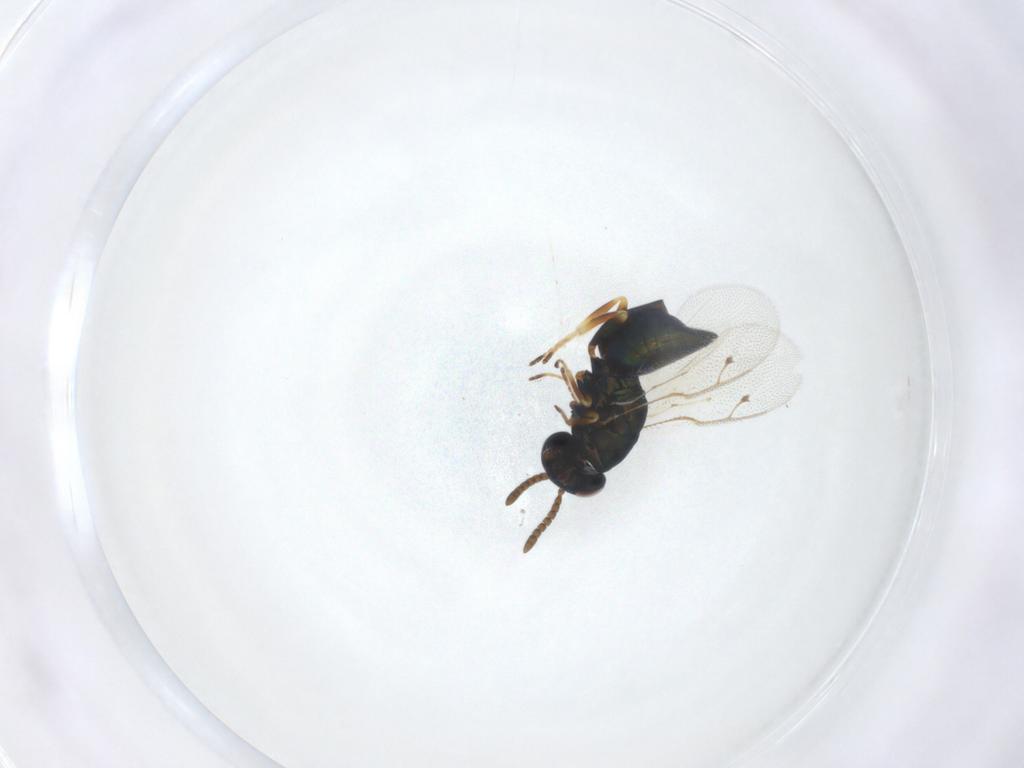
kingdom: Animalia
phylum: Arthropoda
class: Insecta
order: Hymenoptera
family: Pteromalidae
